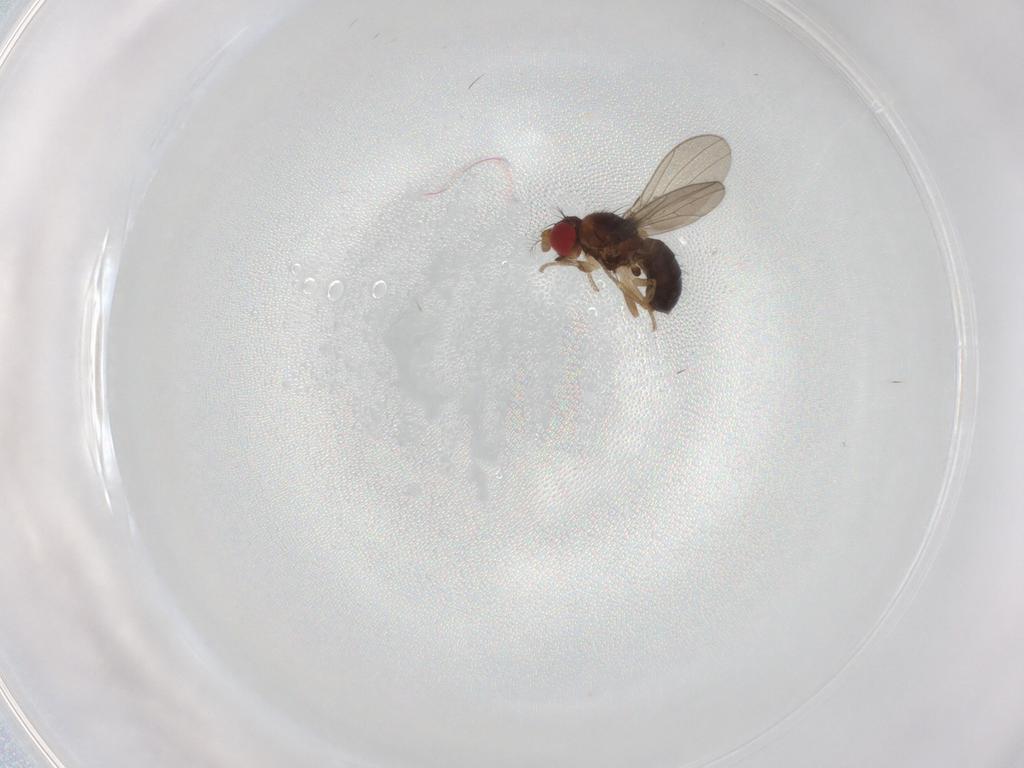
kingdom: Animalia
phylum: Arthropoda
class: Insecta
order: Diptera
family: Drosophilidae
